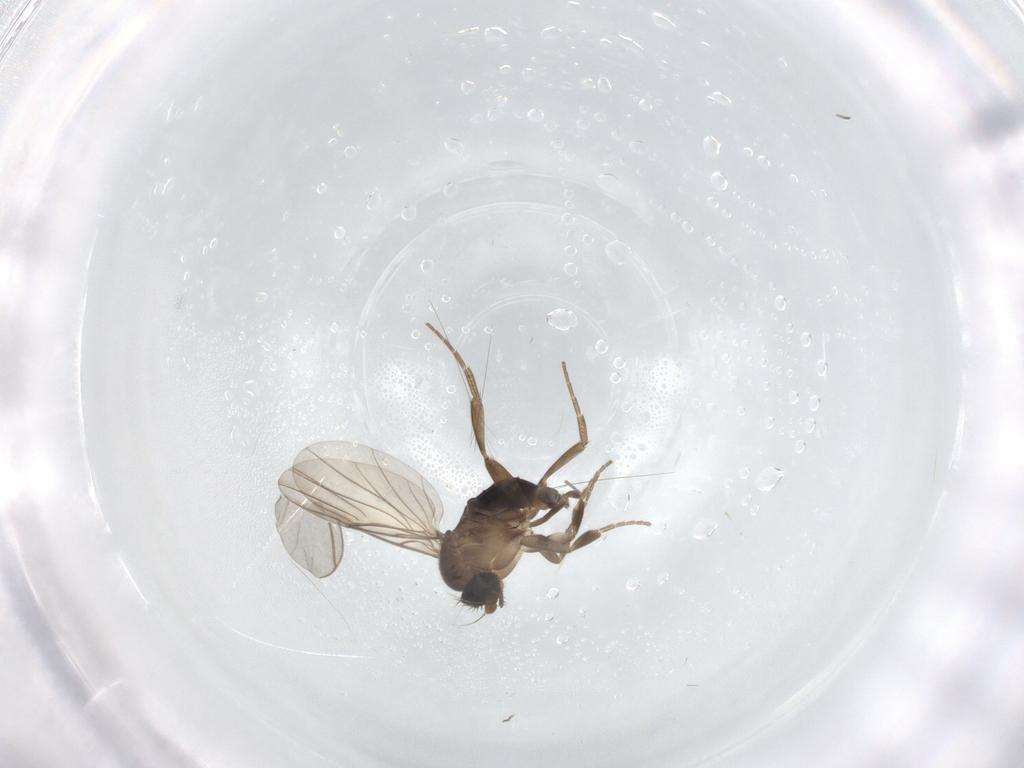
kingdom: Animalia
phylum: Arthropoda
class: Insecta
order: Diptera
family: Phoridae
